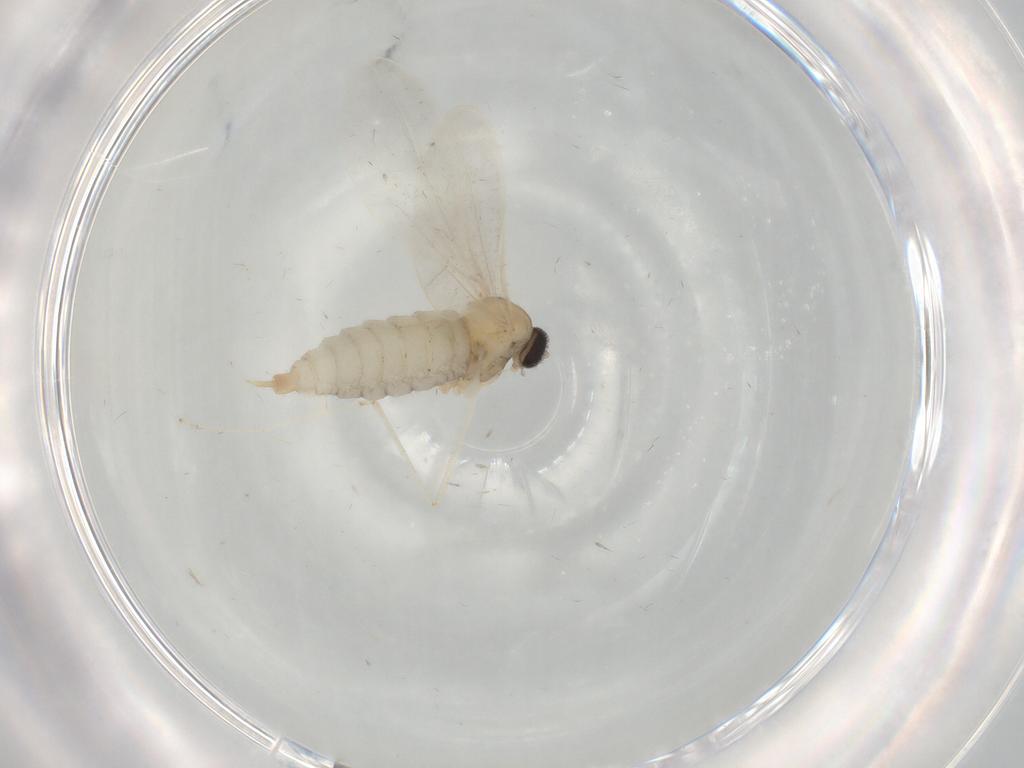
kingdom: Animalia
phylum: Arthropoda
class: Insecta
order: Diptera
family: Cecidomyiidae
